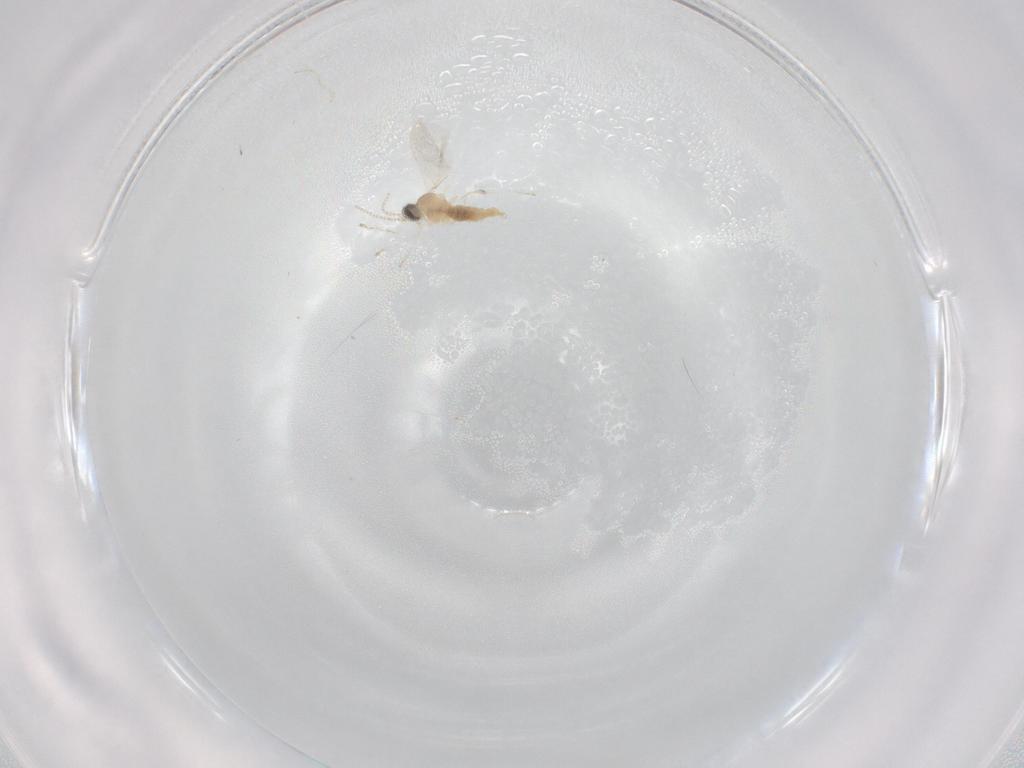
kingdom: Animalia
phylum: Arthropoda
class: Insecta
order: Diptera
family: Cecidomyiidae
